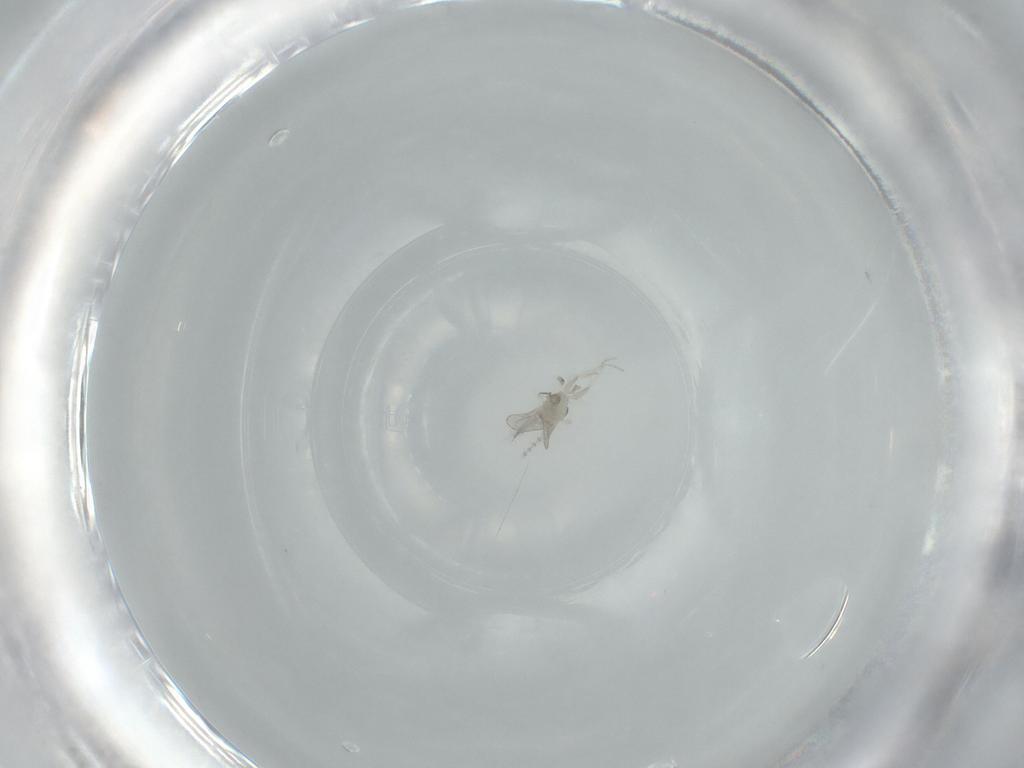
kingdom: Animalia
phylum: Arthropoda
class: Insecta
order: Diptera
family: Cecidomyiidae
